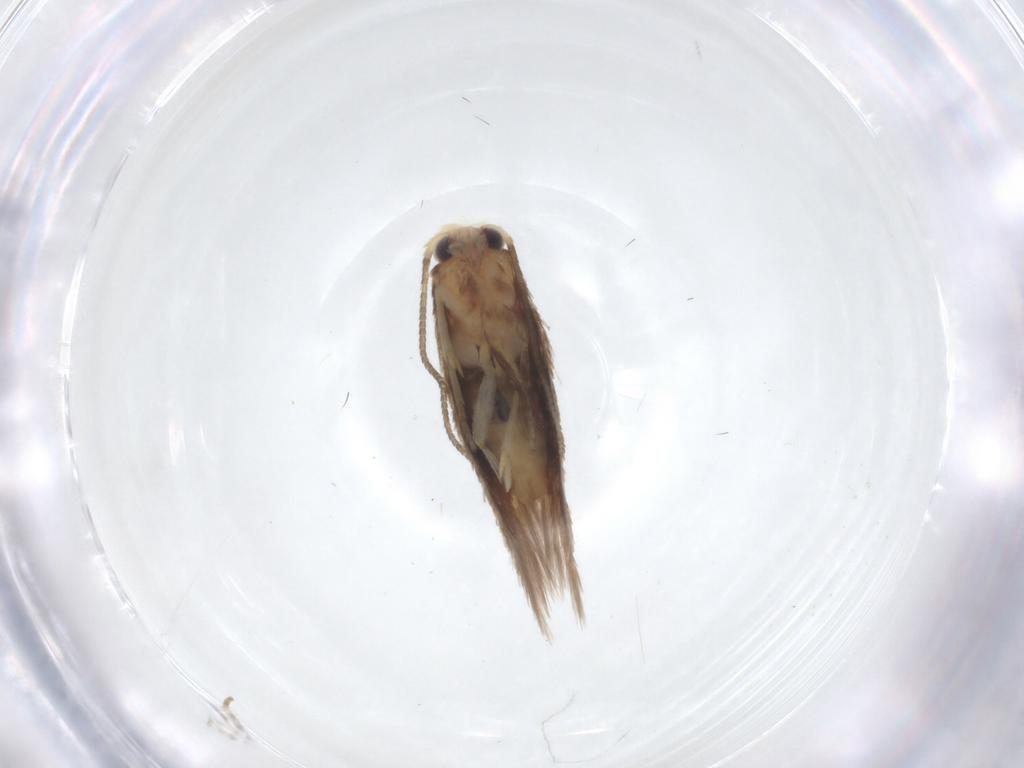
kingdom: Animalia
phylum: Arthropoda
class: Insecta
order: Lepidoptera
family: Nepticulidae
